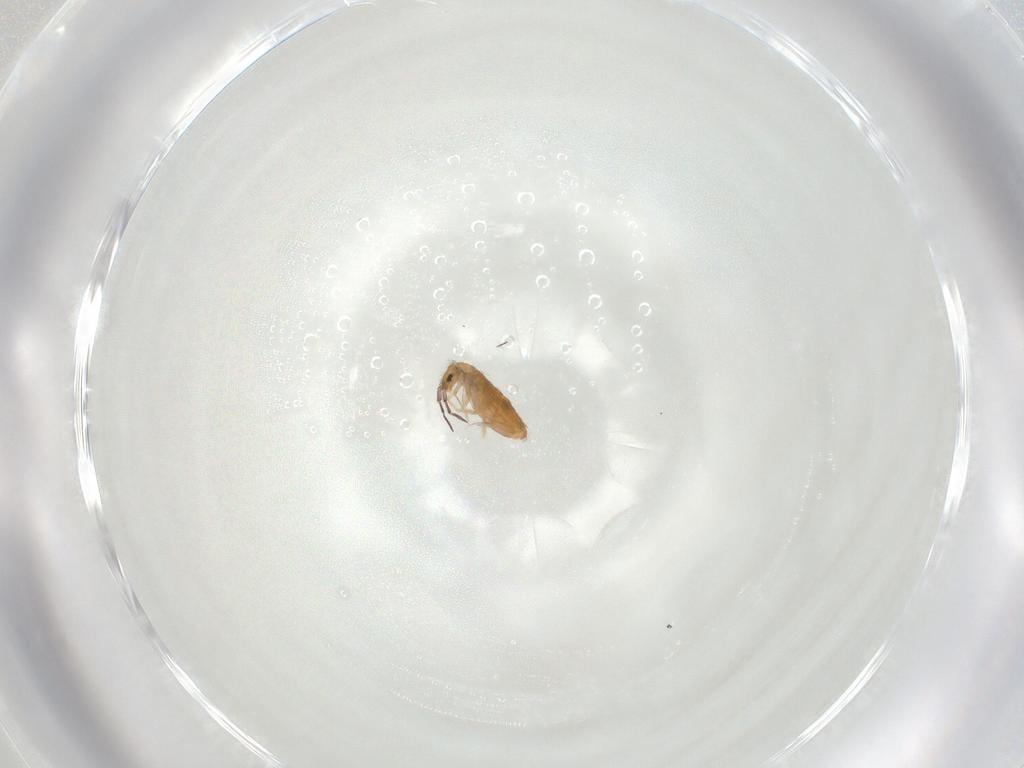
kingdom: Animalia
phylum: Arthropoda
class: Collembola
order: Entomobryomorpha
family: Entomobryidae
